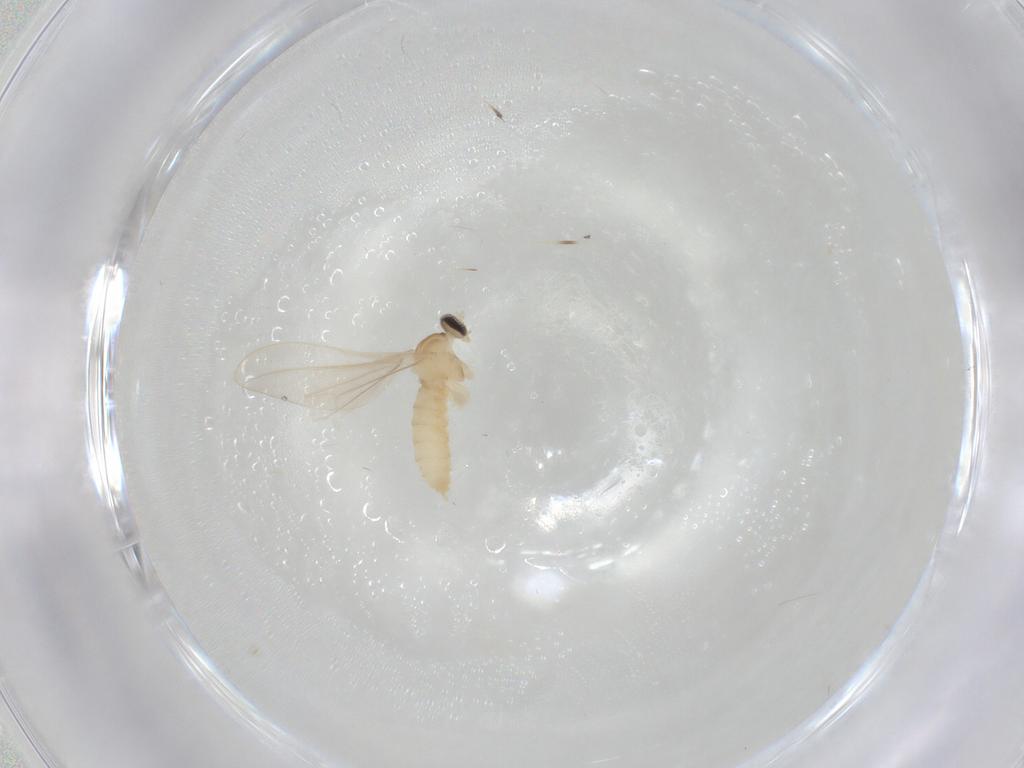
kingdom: Animalia
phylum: Arthropoda
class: Insecta
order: Diptera
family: Cecidomyiidae
